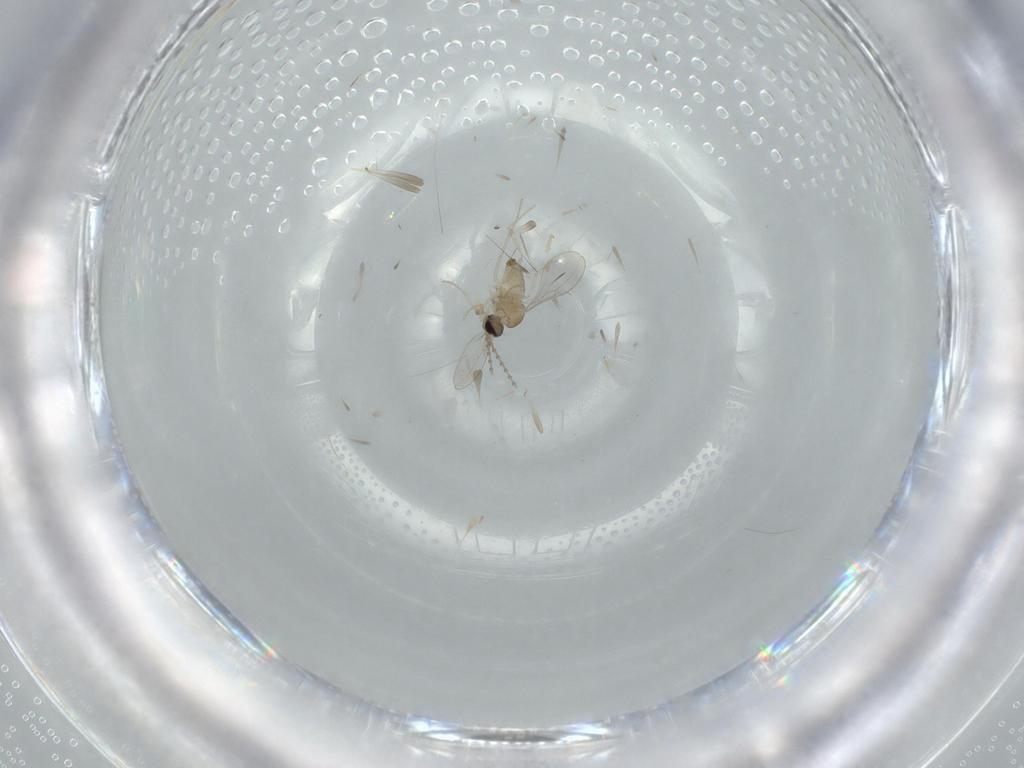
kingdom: Animalia
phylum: Arthropoda
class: Insecta
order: Diptera
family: Cecidomyiidae
